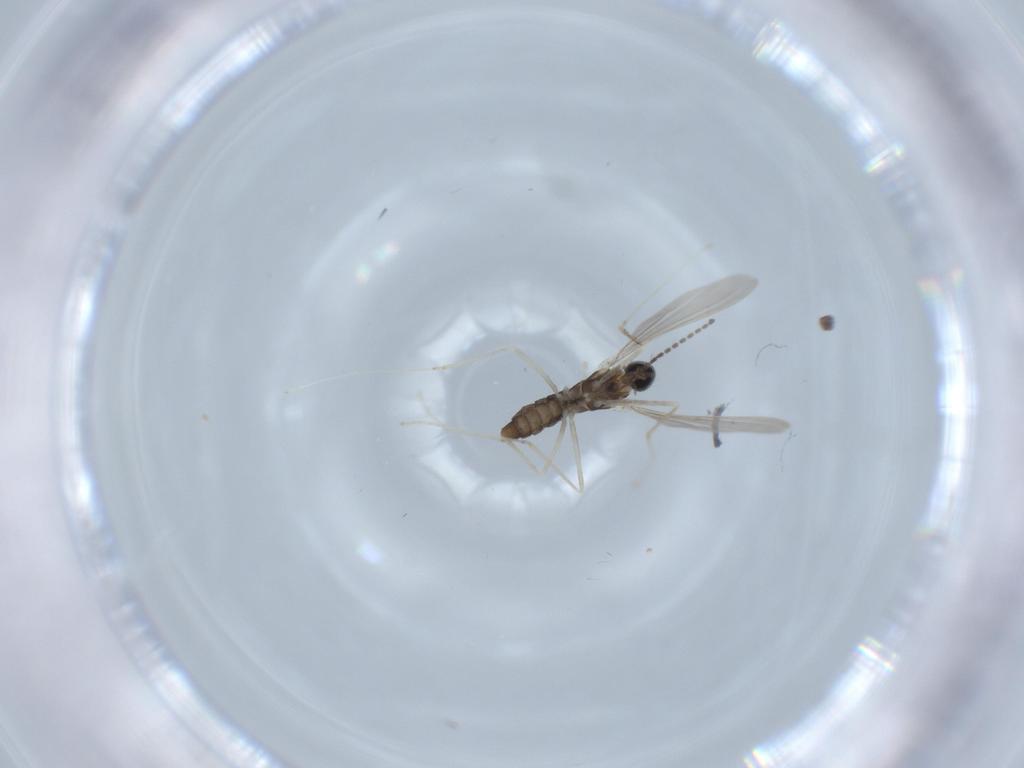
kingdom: Animalia
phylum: Arthropoda
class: Insecta
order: Diptera
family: Cecidomyiidae
